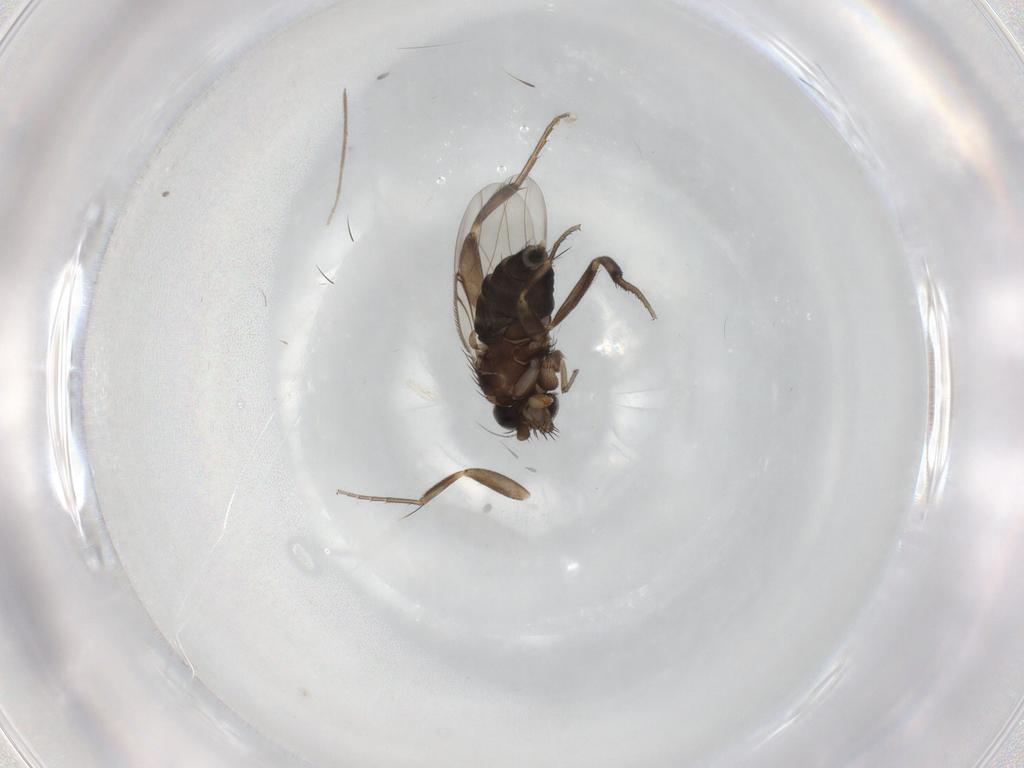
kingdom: Animalia
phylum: Arthropoda
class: Insecta
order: Diptera
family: Phoridae
